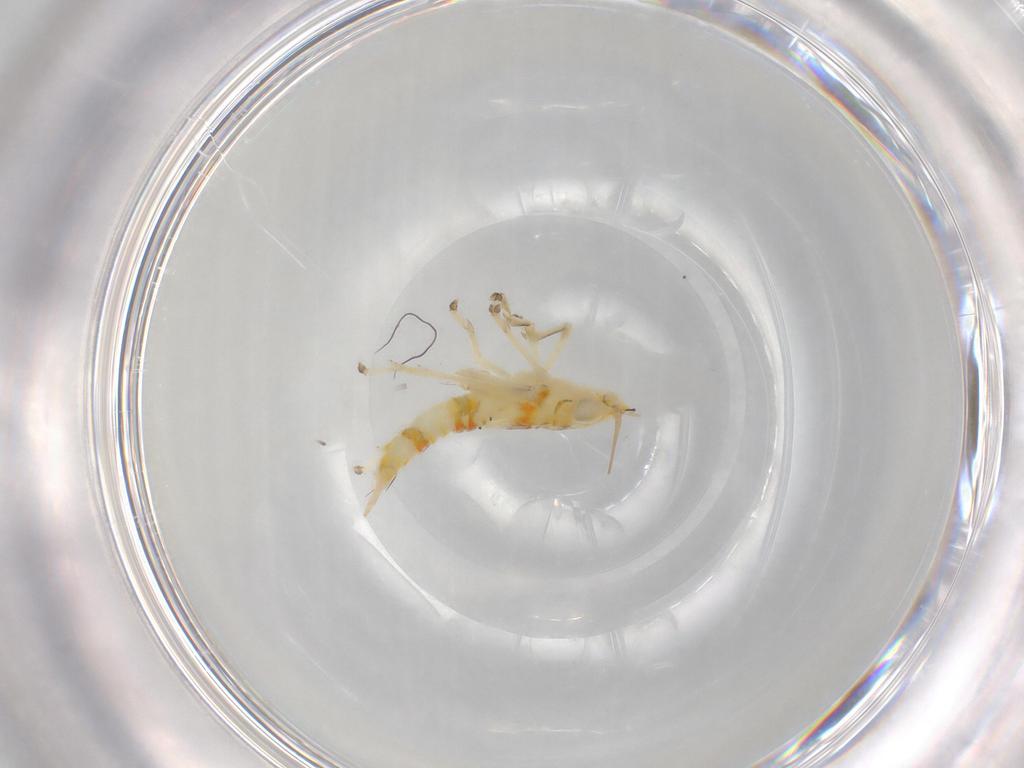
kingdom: Animalia
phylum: Arthropoda
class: Insecta
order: Hemiptera
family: Cicadellidae
